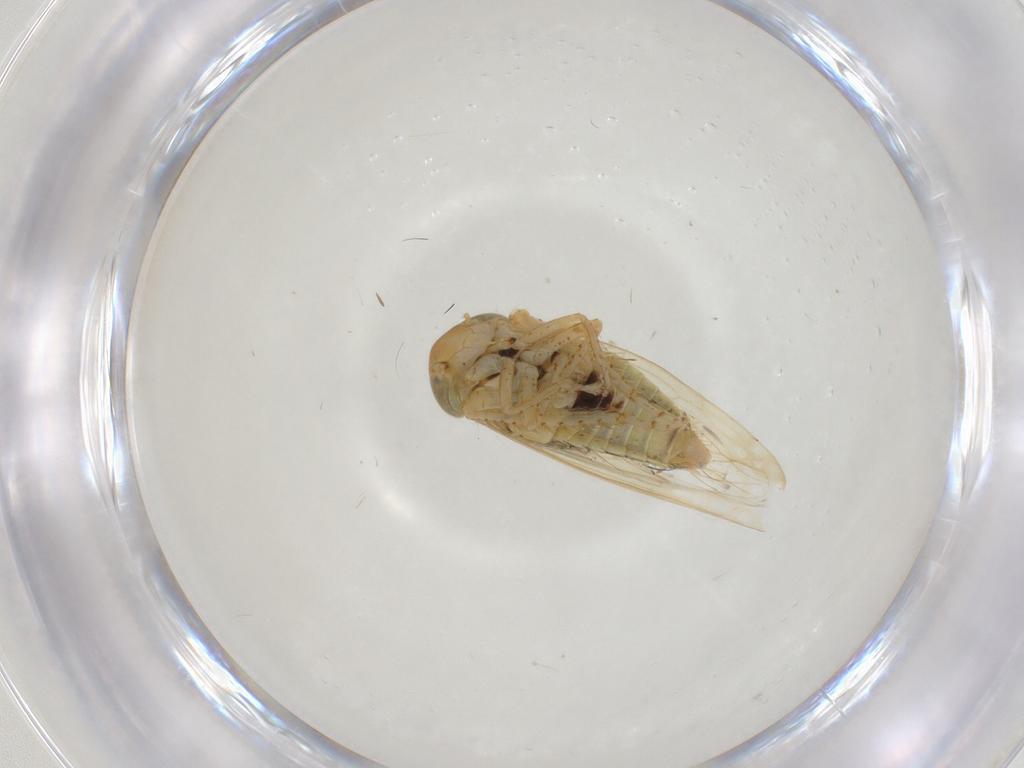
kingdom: Animalia
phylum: Arthropoda
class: Insecta
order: Hemiptera
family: Cicadellidae
